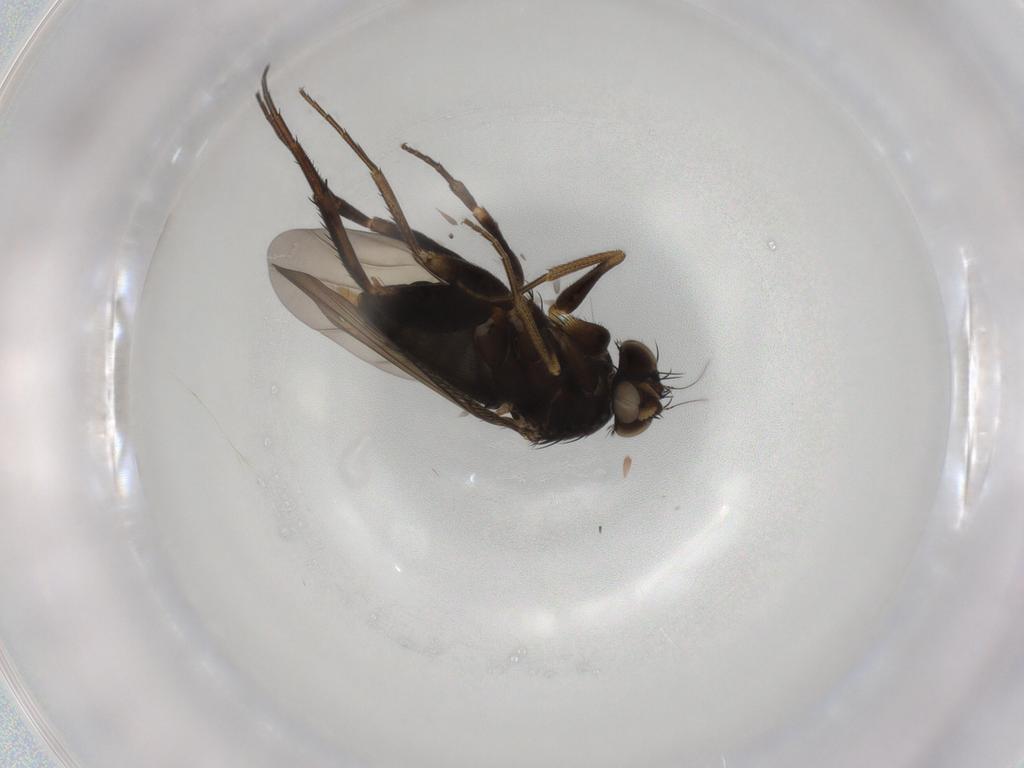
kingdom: Animalia
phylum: Arthropoda
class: Insecta
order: Diptera
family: Phoridae
